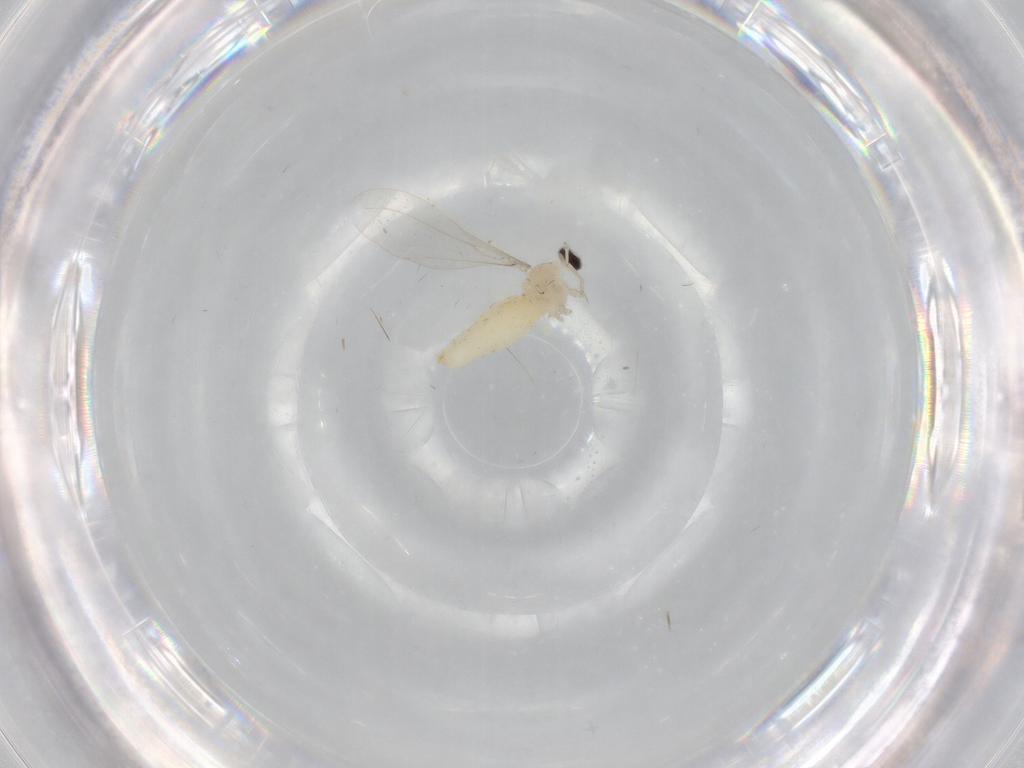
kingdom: Animalia
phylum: Arthropoda
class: Insecta
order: Diptera
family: Cecidomyiidae
